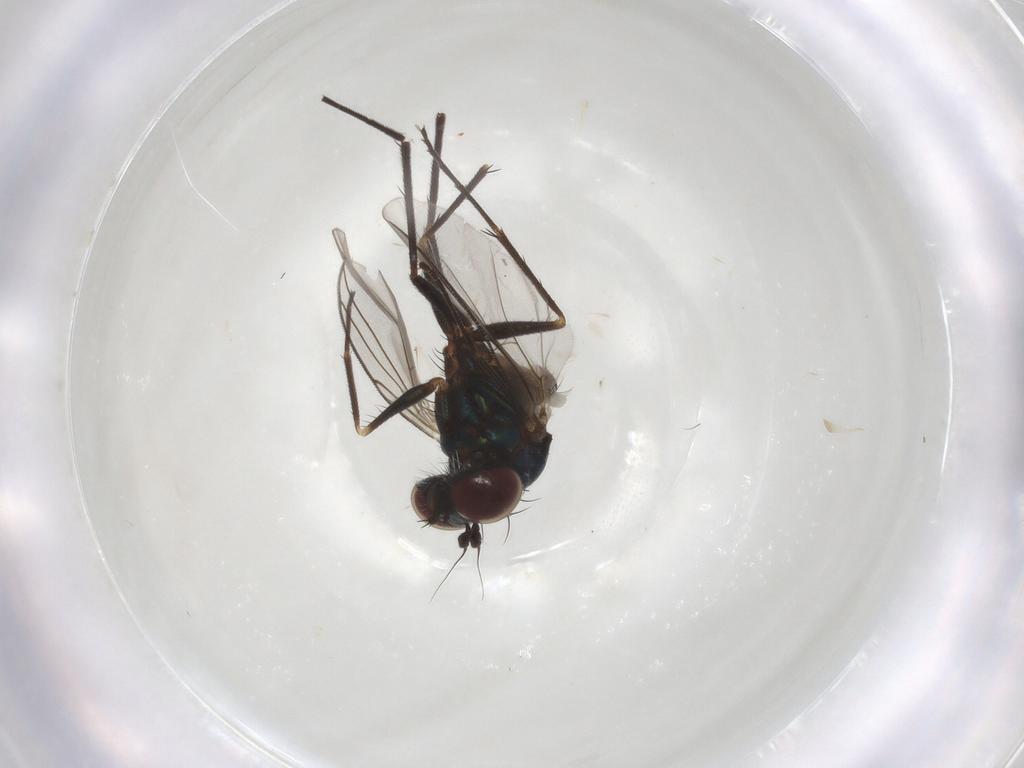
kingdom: Animalia
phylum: Arthropoda
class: Insecta
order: Diptera
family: Dolichopodidae
